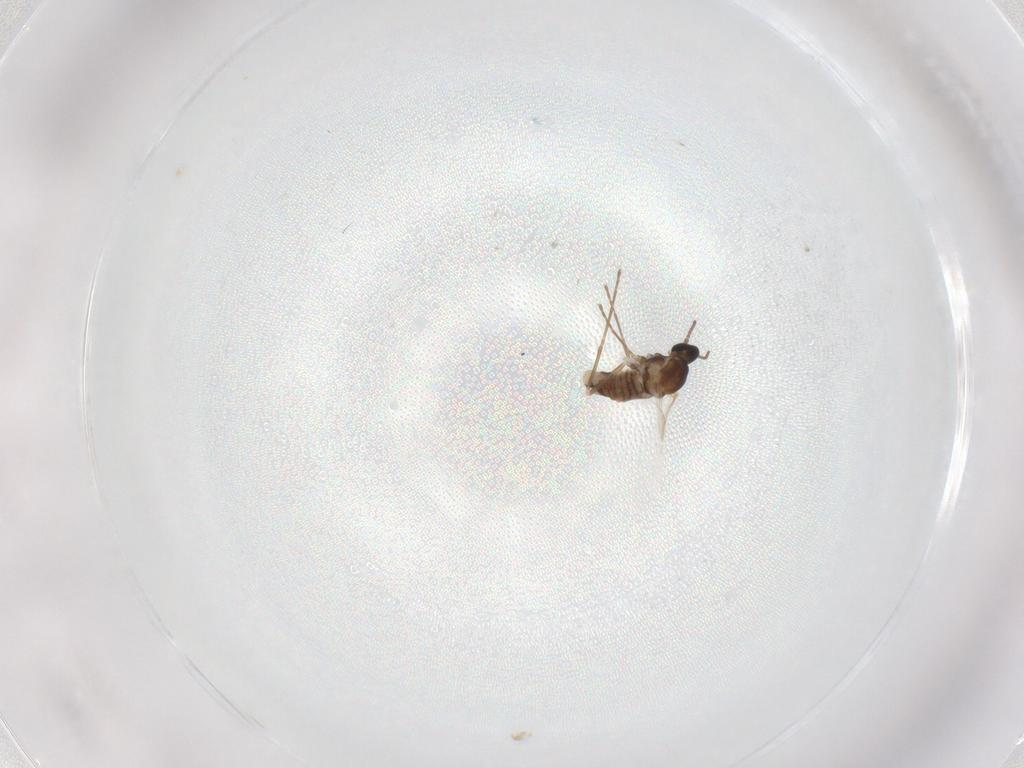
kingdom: Animalia
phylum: Arthropoda
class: Insecta
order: Diptera
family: Cecidomyiidae
